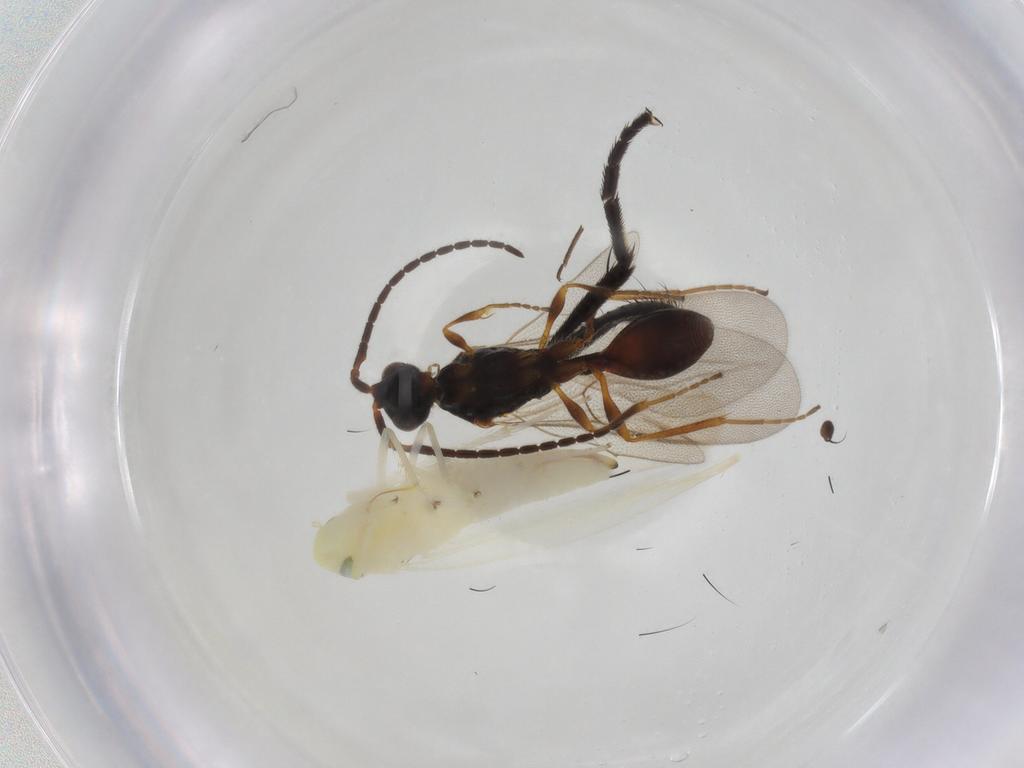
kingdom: Animalia
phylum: Arthropoda
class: Insecta
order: Hemiptera
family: Cicadellidae
